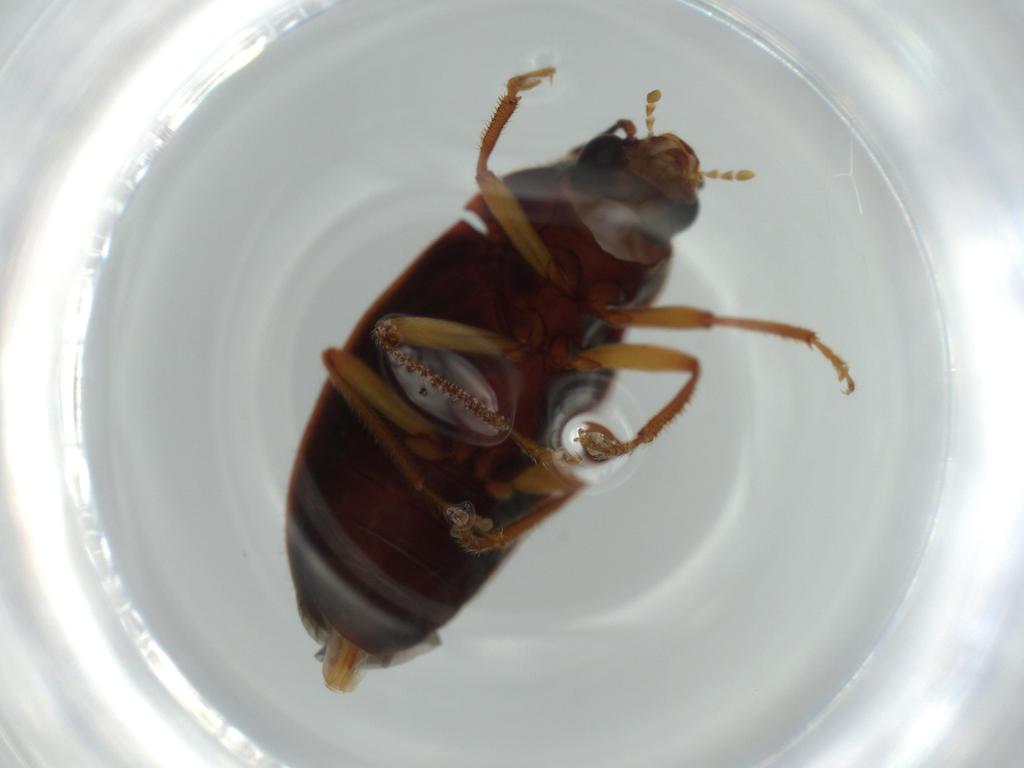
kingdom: Animalia
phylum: Arthropoda
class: Insecta
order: Coleoptera
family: Ptilodactylidae
